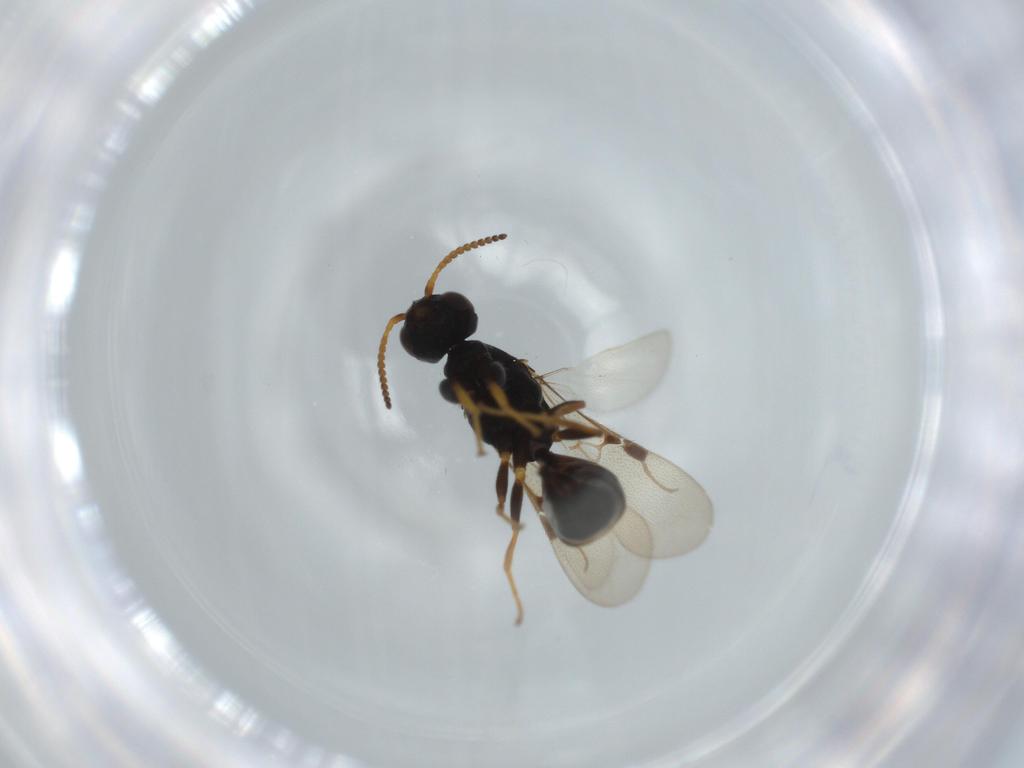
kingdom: Animalia
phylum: Arthropoda
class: Insecta
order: Hymenoptera
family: Bethylidae
